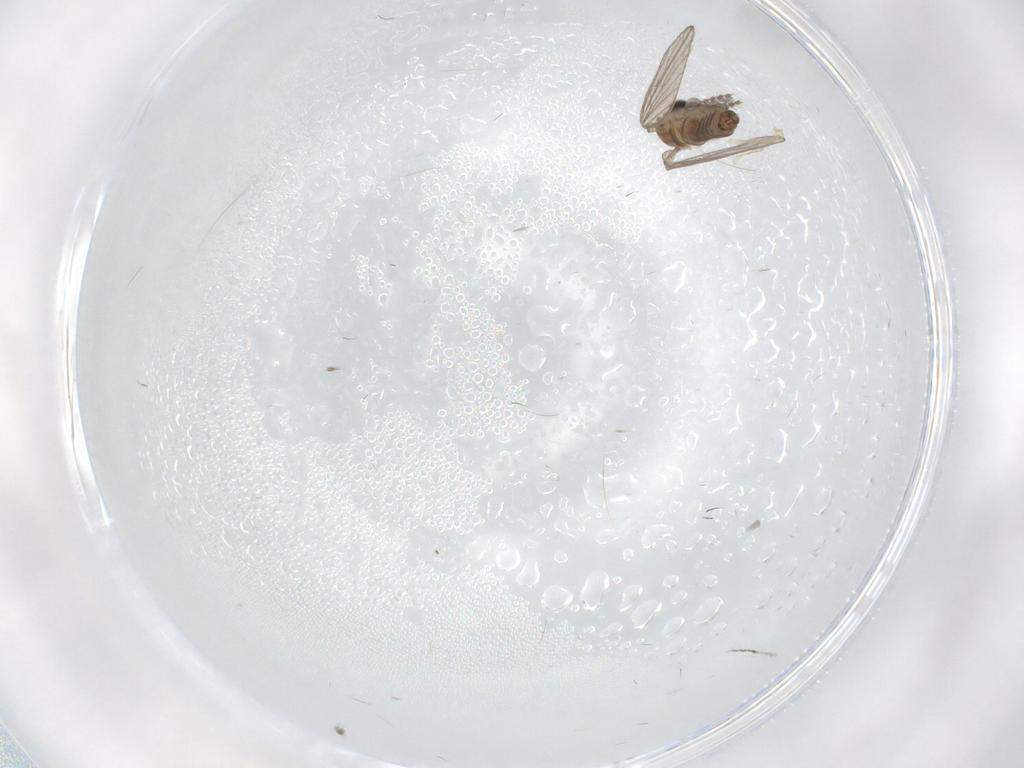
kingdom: Animalia
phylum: Arthropoda
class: Insecta
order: Diptera
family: Psychodidae
